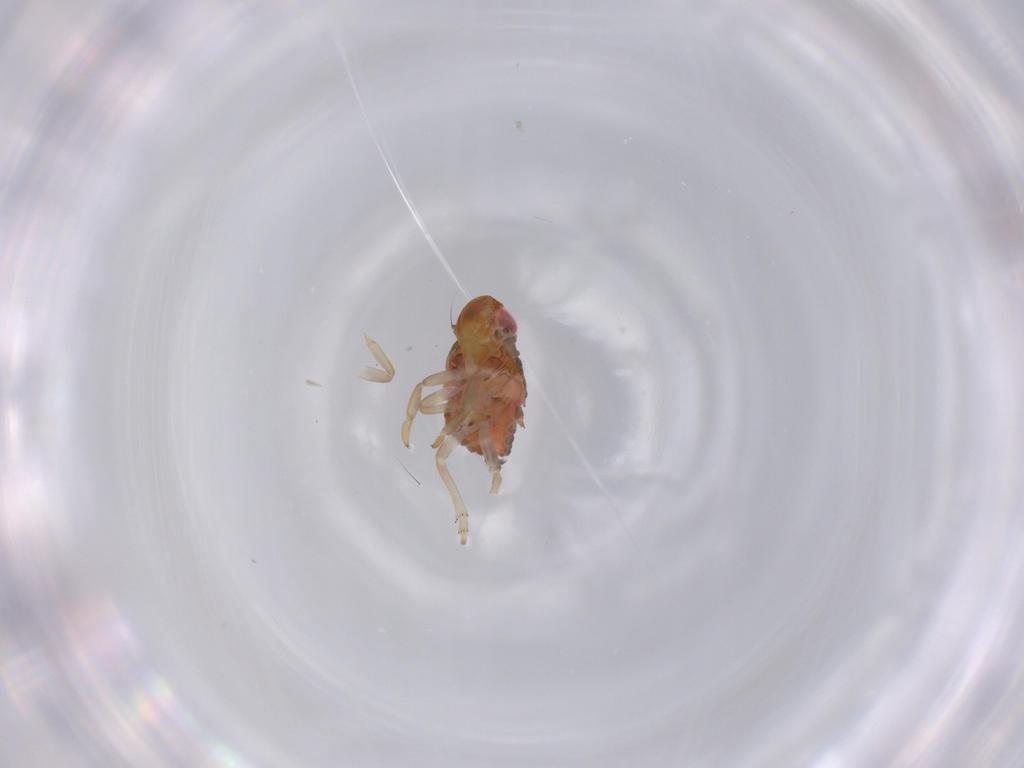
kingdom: Animalia
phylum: Arthropoda
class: Insecta
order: Hemiptera
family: Issidae
